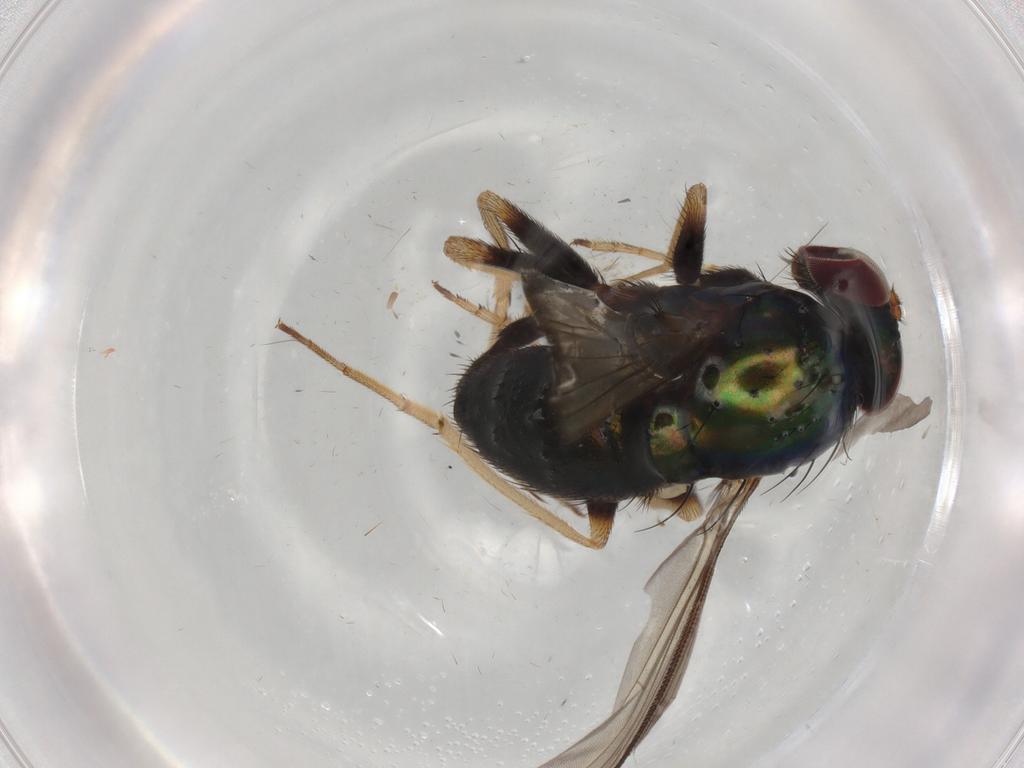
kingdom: Animalia
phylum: Arthropoda
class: Insecta
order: Diptera
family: Dolichopodidae
